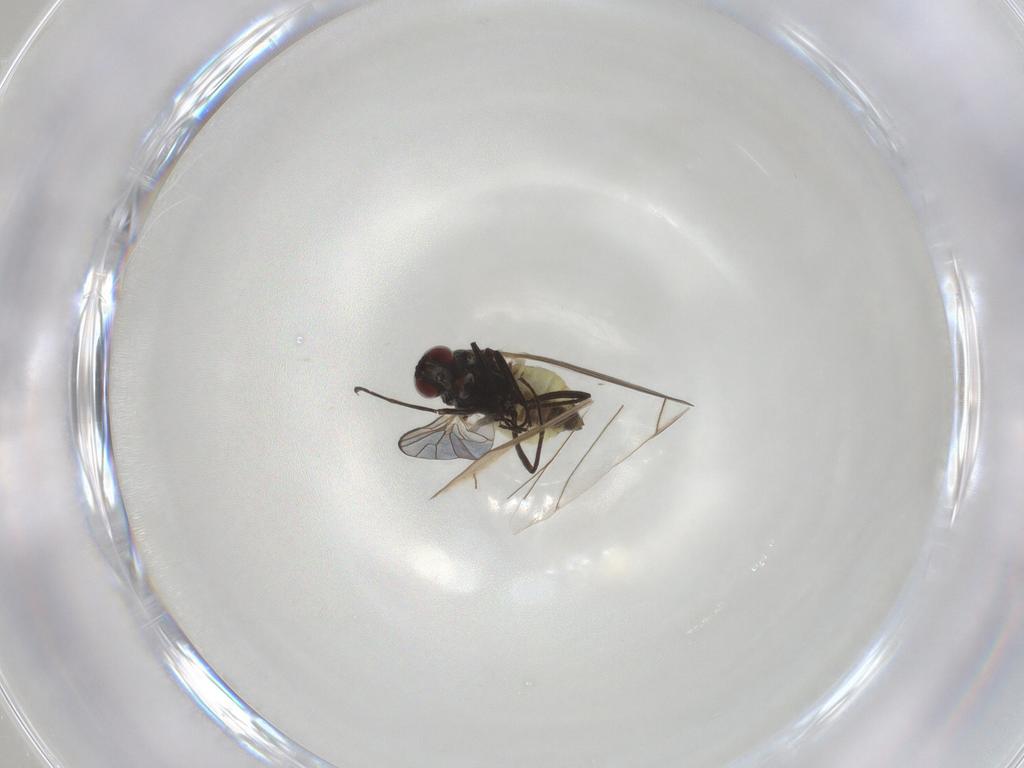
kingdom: Animalia
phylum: Arthropoda
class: Insecta
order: Diptera
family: Bombyliidae
